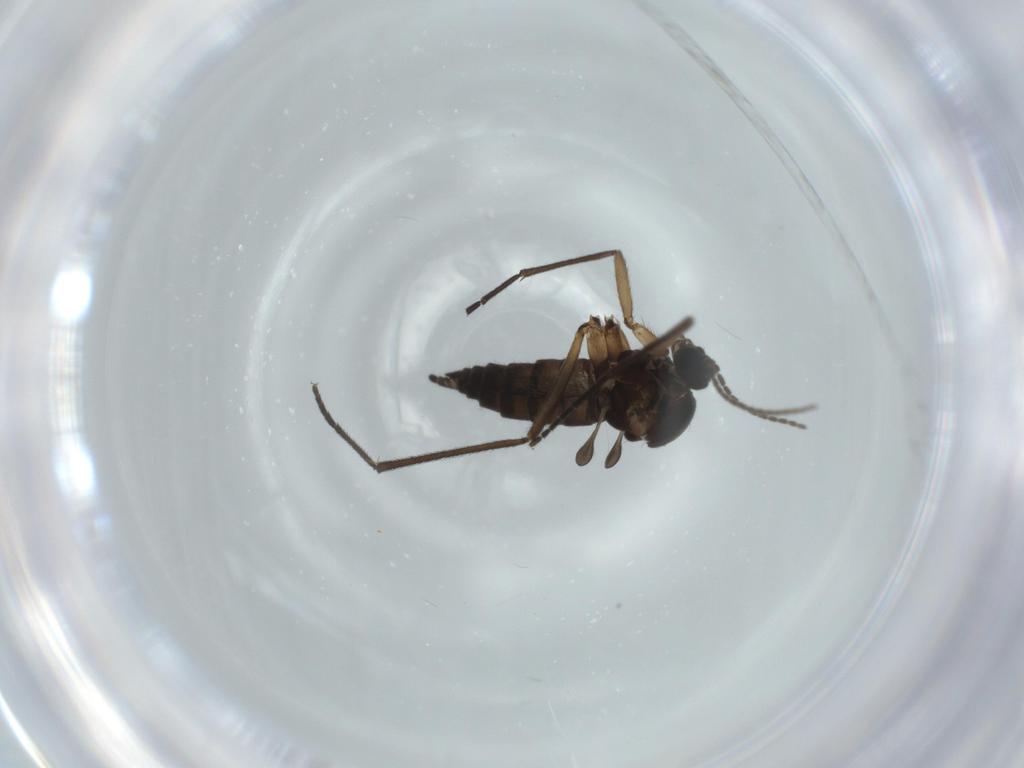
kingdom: Animalia
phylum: Arthropoda
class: Insecta
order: Diptera
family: Sciaridae
